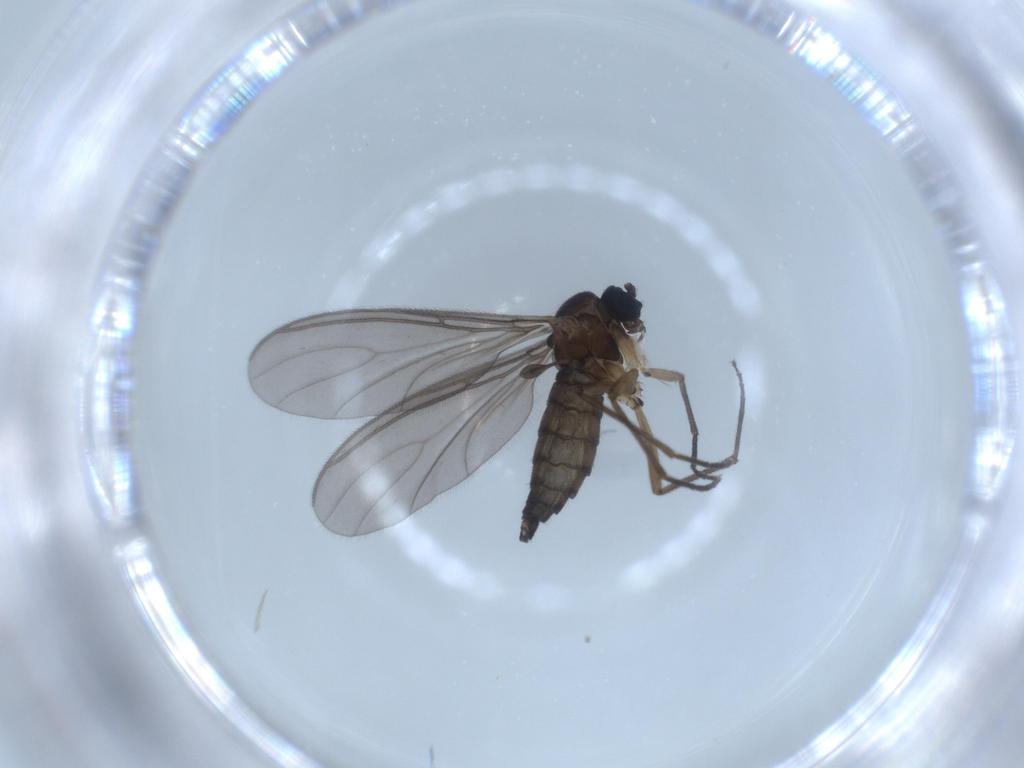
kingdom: Animalia
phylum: Arthropoda
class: Insecta
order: Diptera
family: Sciaridae
